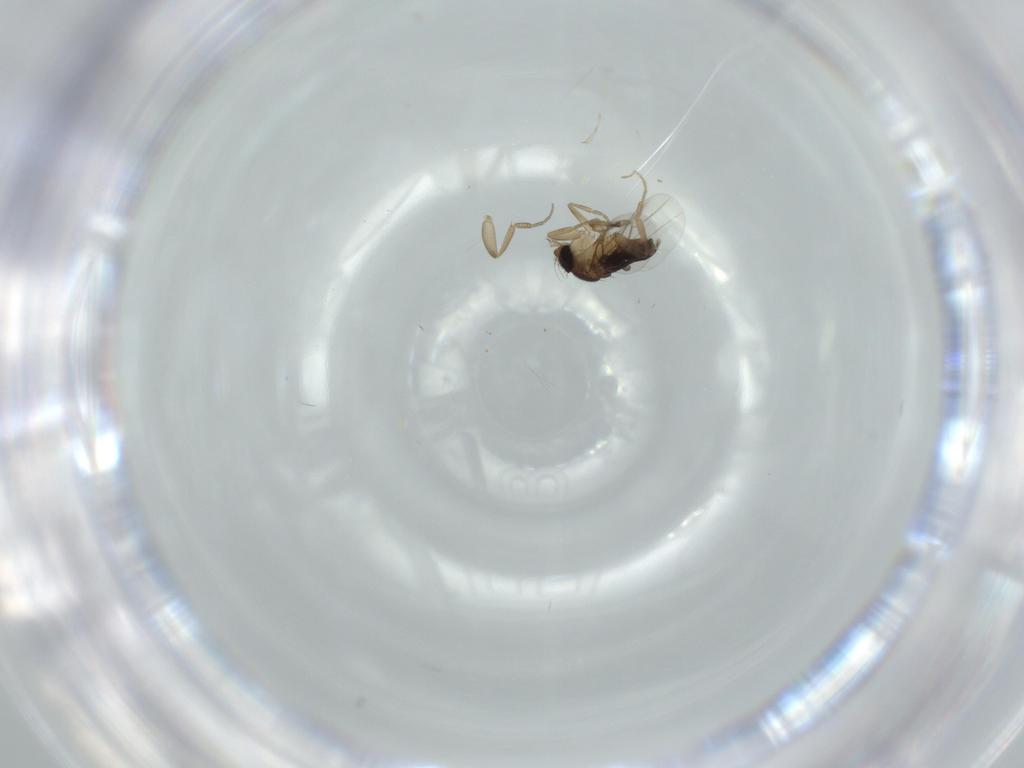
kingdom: Animalia
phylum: Arthropoda
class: Insecta
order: Diptera
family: Phoridae
